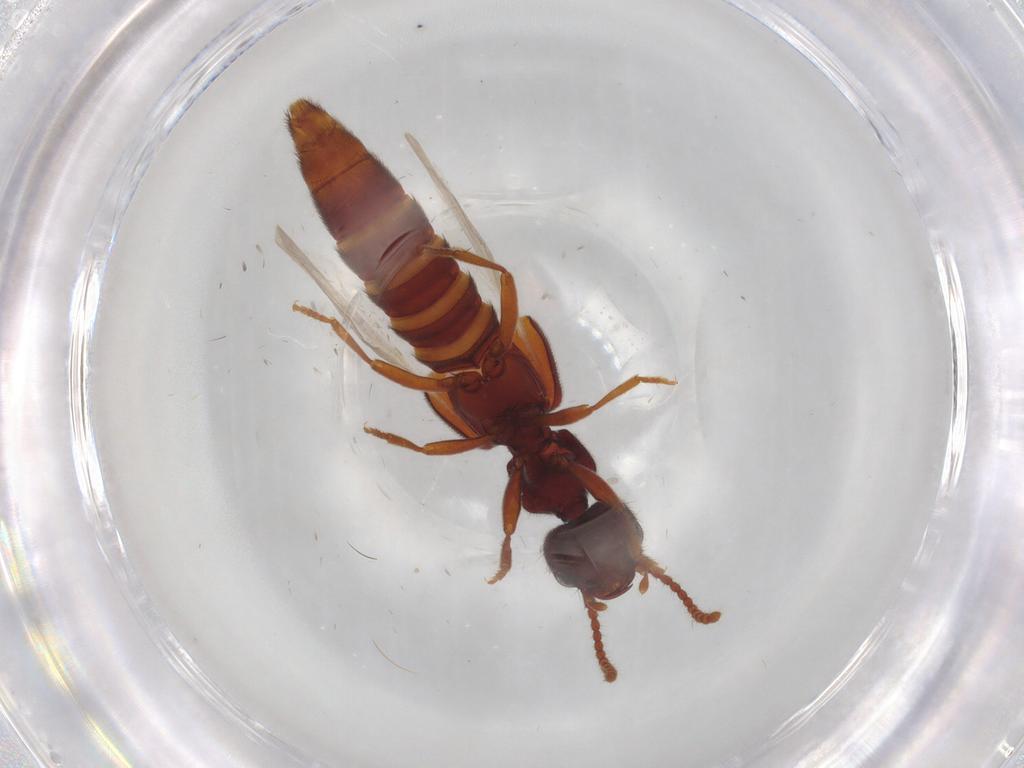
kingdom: Animalia
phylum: Arthropoda
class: Insecta
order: Coleoptera
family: Staphylinidae
